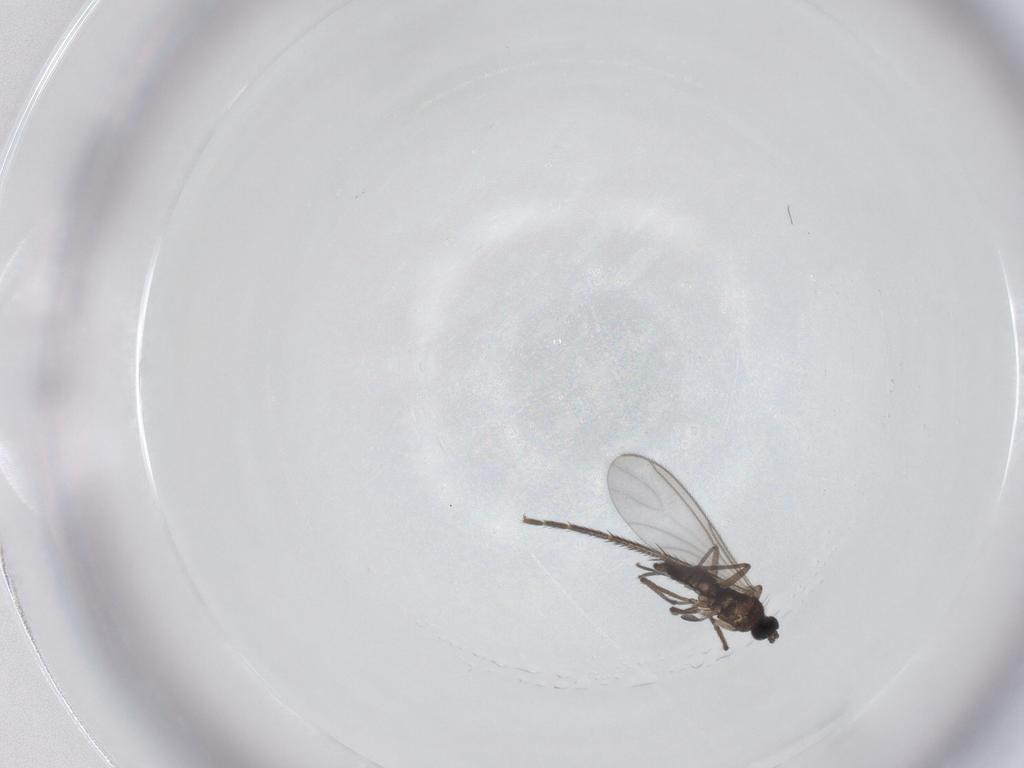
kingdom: Animalia
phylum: Arthropoda
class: Insecta
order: Diptera
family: Sciaridae
